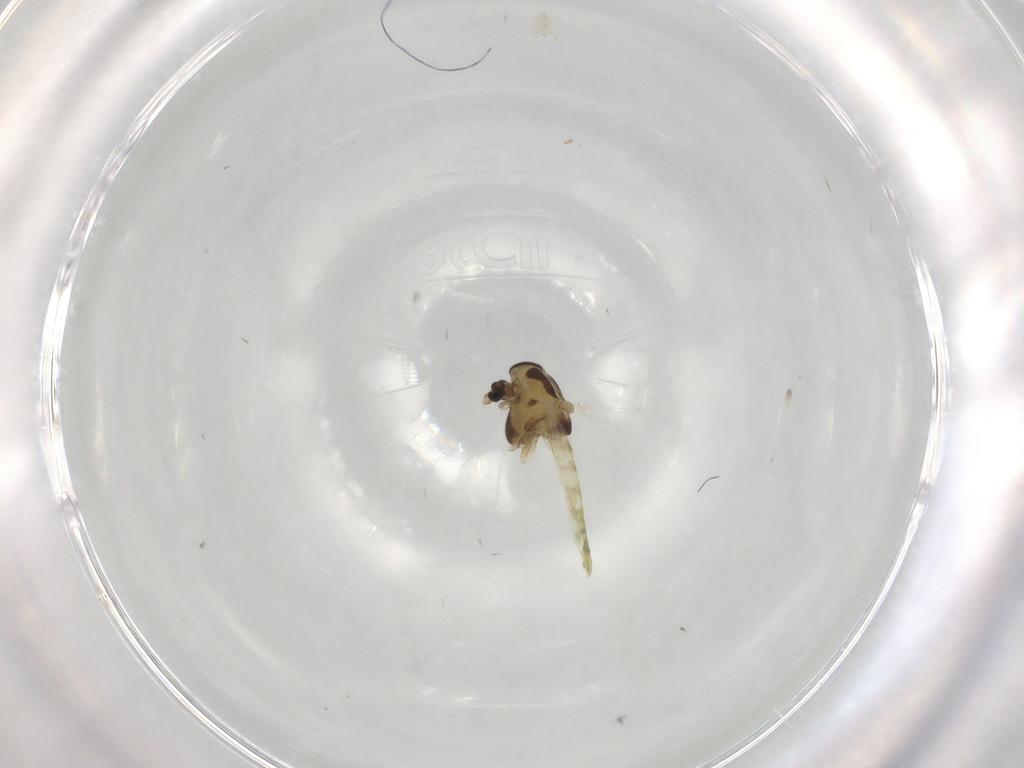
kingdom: Animalia
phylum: Arthropoda
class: Insecta
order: Diptera
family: Chironomidae
